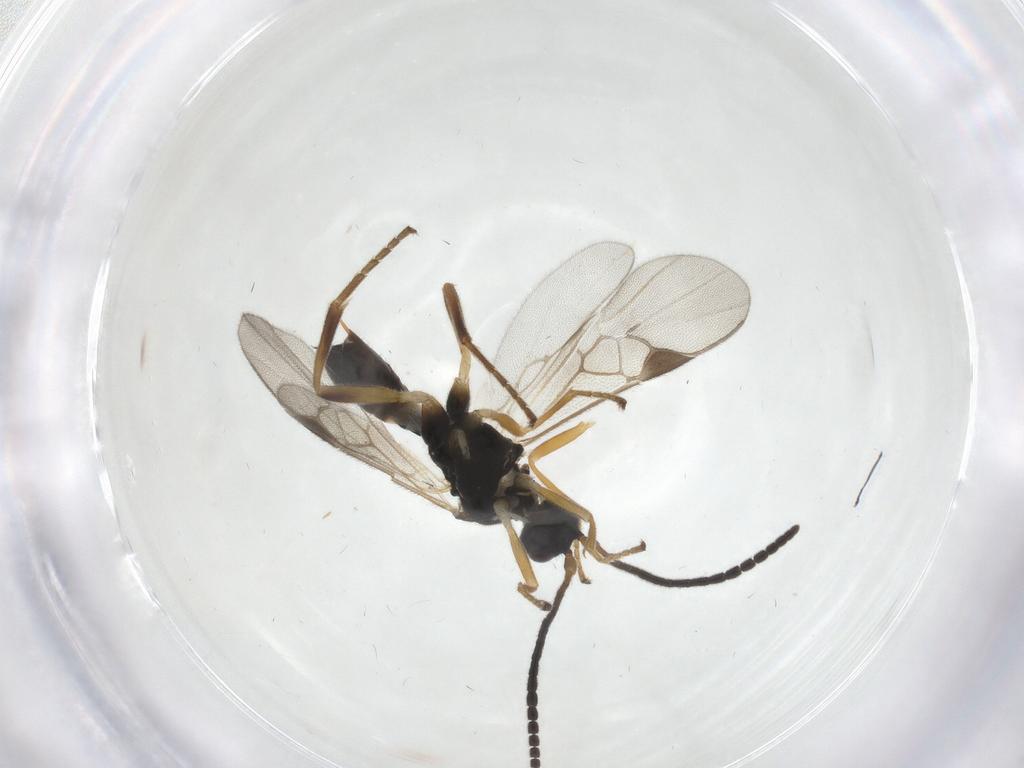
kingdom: Animalia
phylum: Arthropoda
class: Insecta
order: Hymenoptera
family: Braconidae
